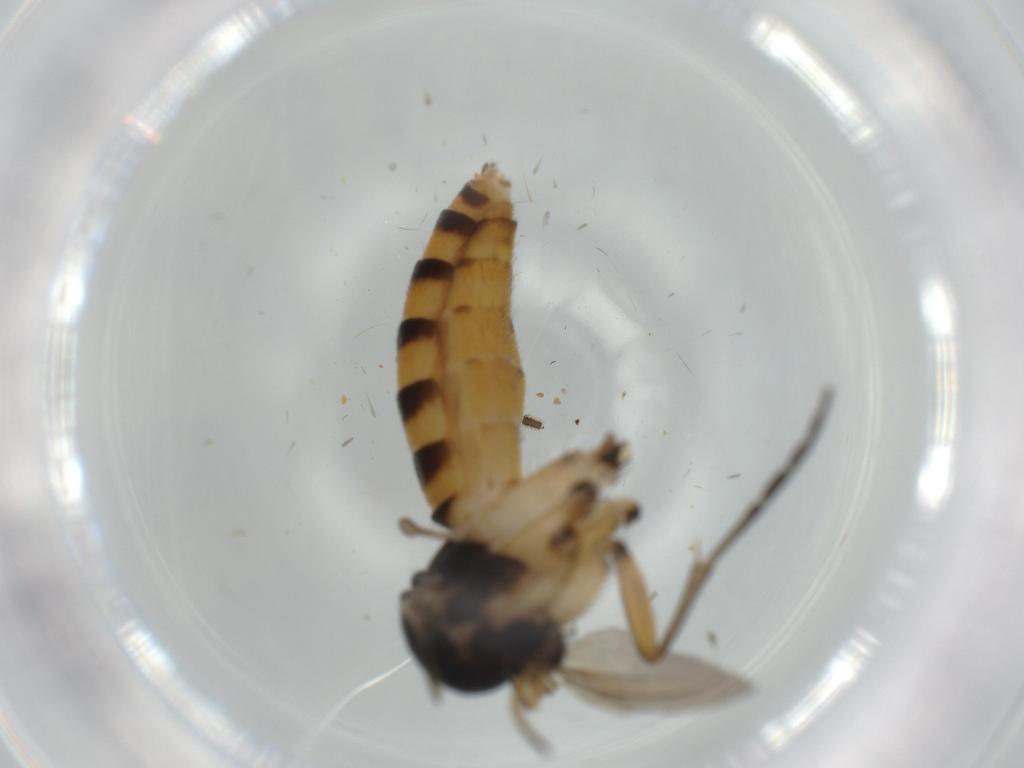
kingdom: Animalia
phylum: Arthropoda
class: Insecta
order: Diptera
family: Mycetophilidae
